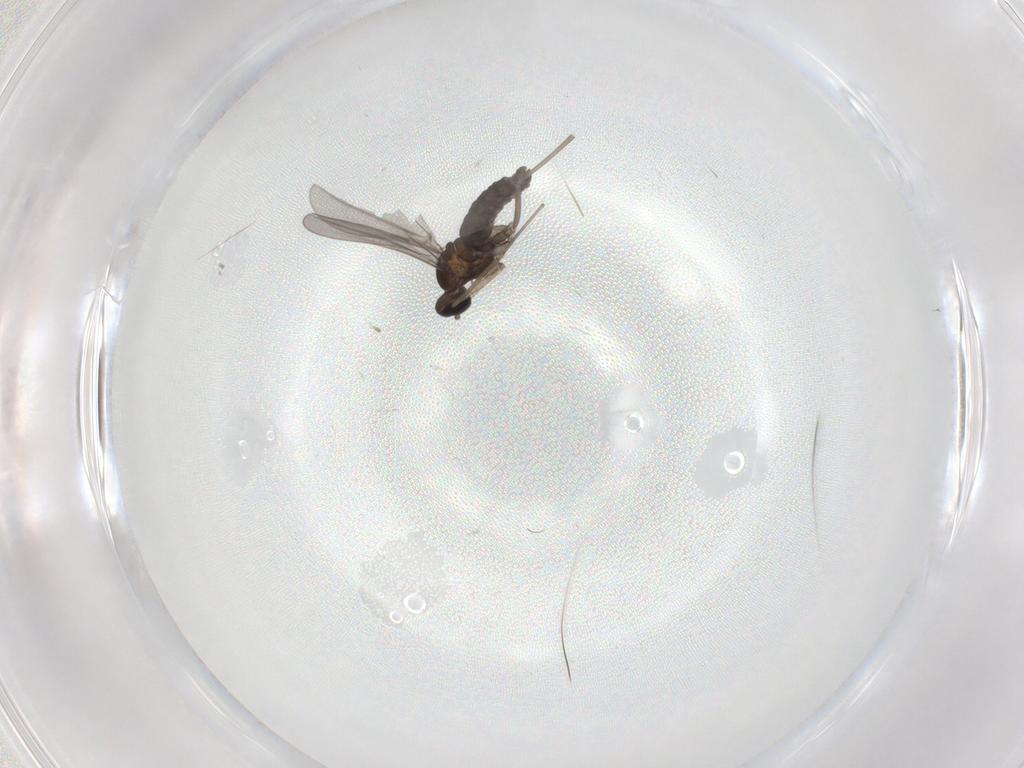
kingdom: Animalia
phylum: Arthropoda
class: Insecta
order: Diptera
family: Cecidomyiidae
